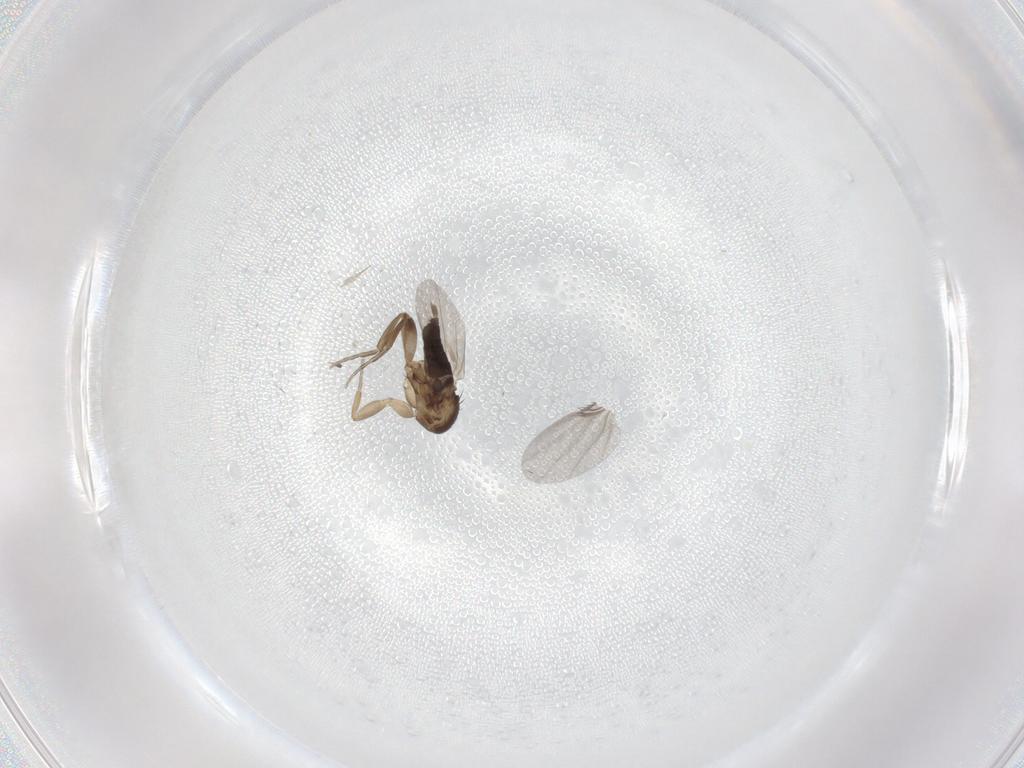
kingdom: Animalia
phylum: Arthropoda
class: Insecta
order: Diptera
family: Phoridae
